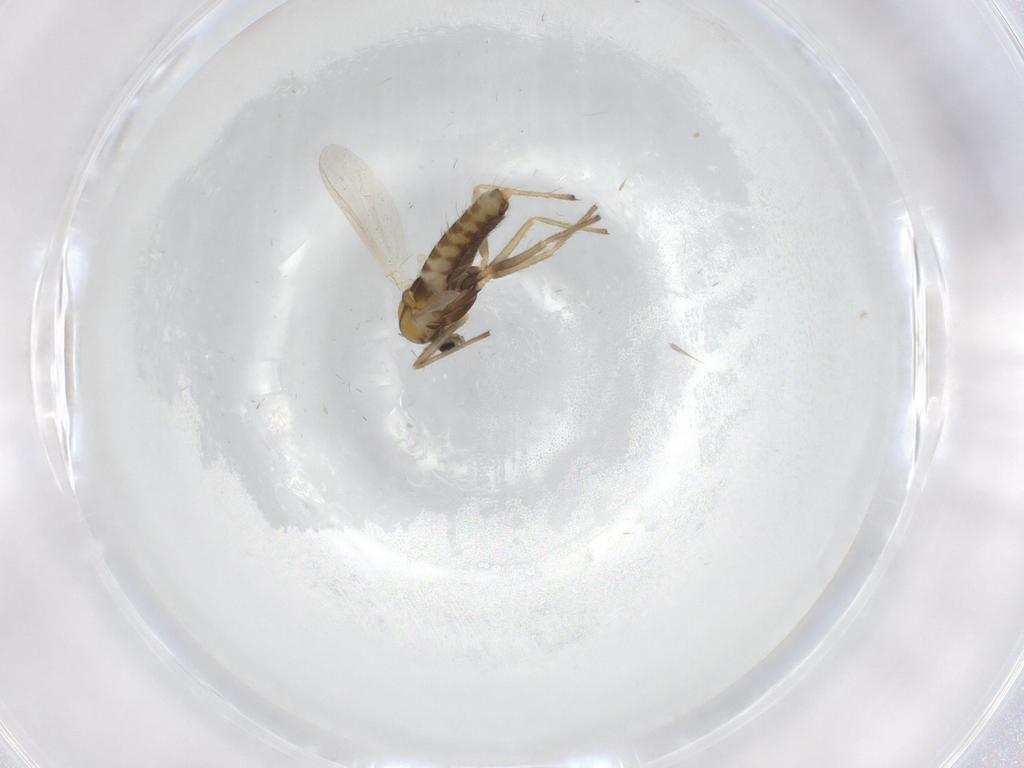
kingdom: Animalia
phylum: Arthropoda
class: Insecta
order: Diptera
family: Chironomidae
